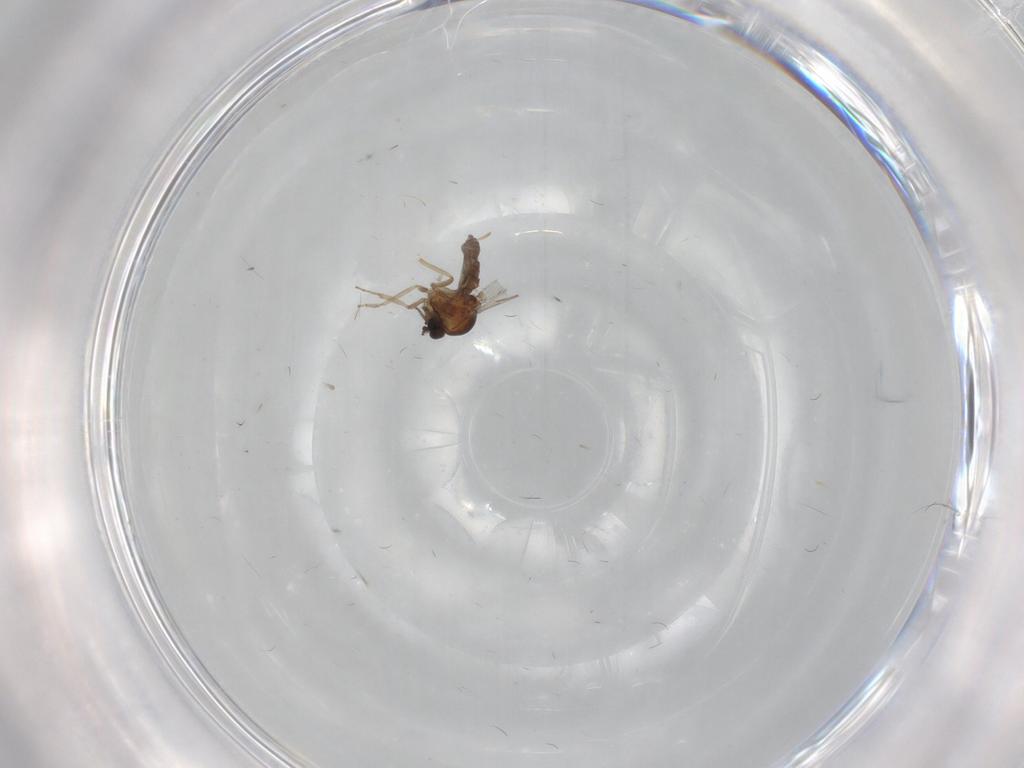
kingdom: Animalia
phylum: Arthropoda
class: Insecta
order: Diptera
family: Ceratopogonidae
